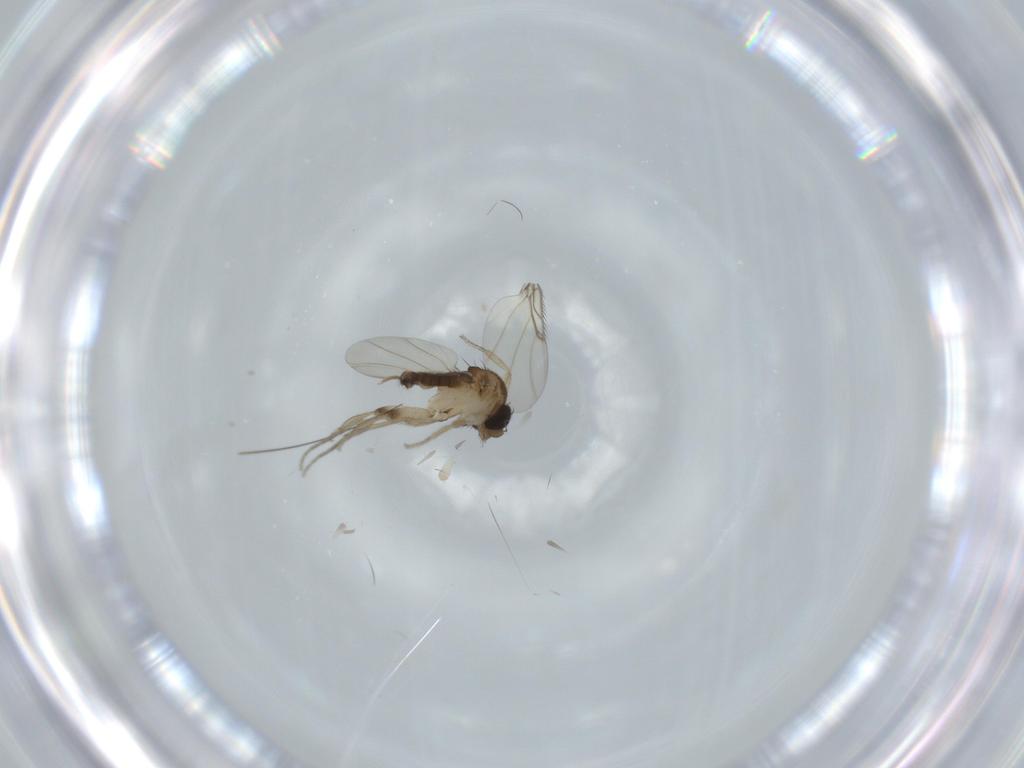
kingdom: Animalia
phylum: Arthropoda
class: Insecta
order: Diptera
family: Phoridae
